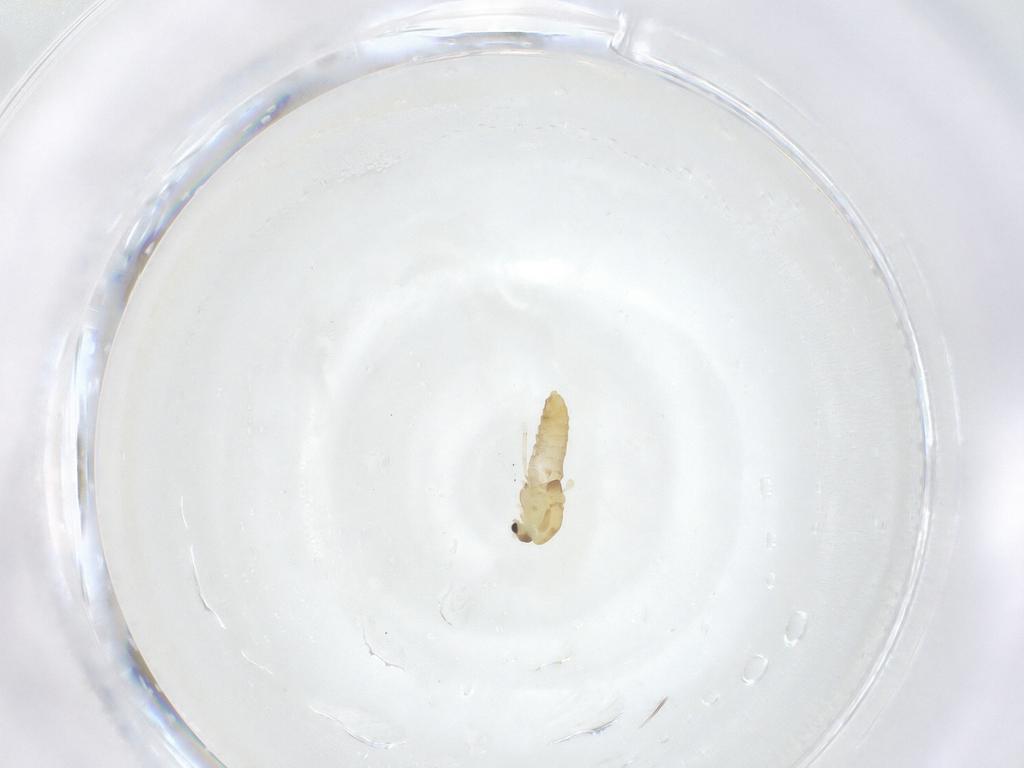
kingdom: Animalia
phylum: Arthropoda
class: Insecta
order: Diptera
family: Chironomidae
